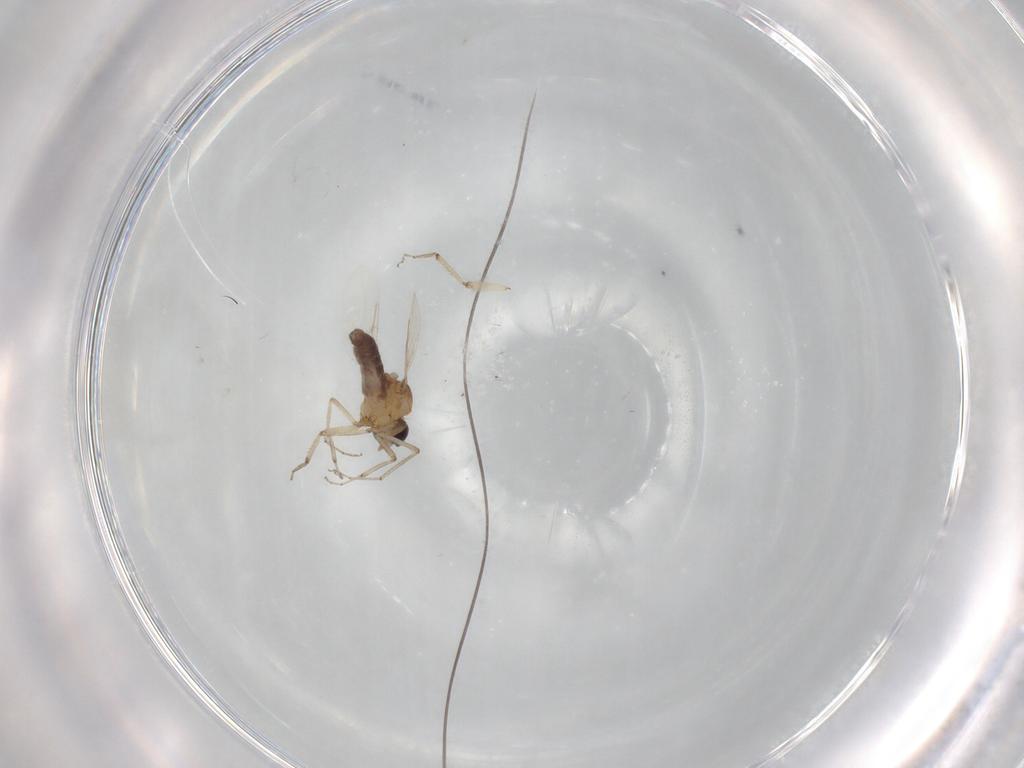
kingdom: Animalia
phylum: Arthropoda
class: Insecta
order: Diptera
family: Ceratopogonidae
